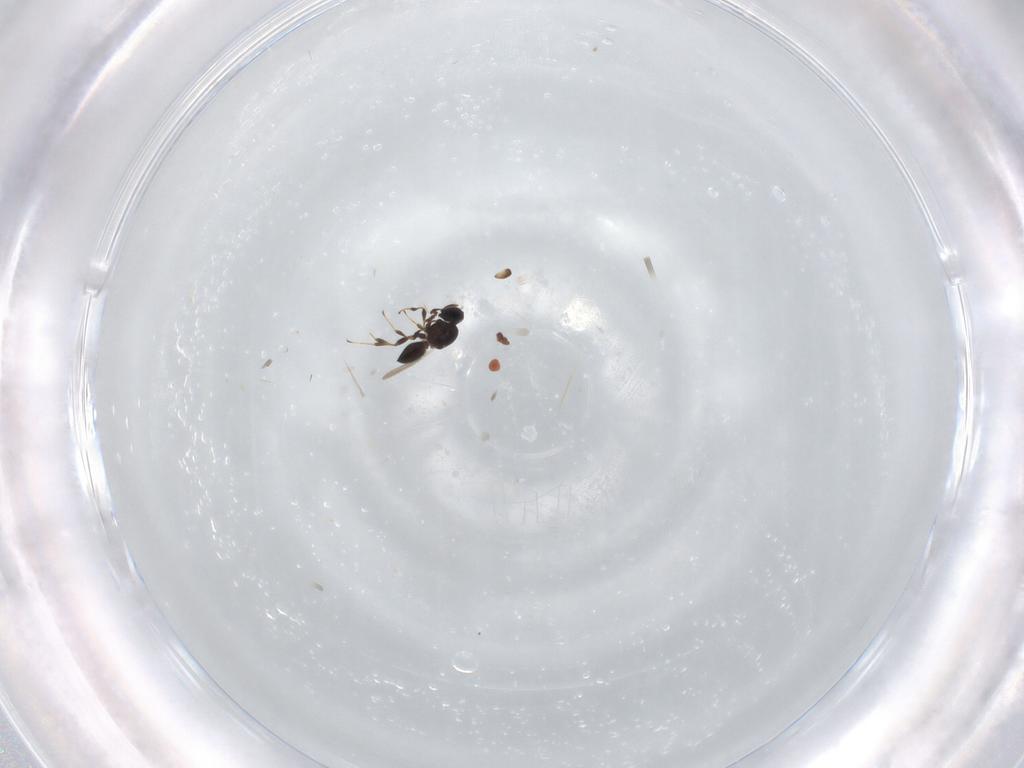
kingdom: Animalia
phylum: Arthropoda
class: Insecta
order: Hymenoptera
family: Platygastridae
